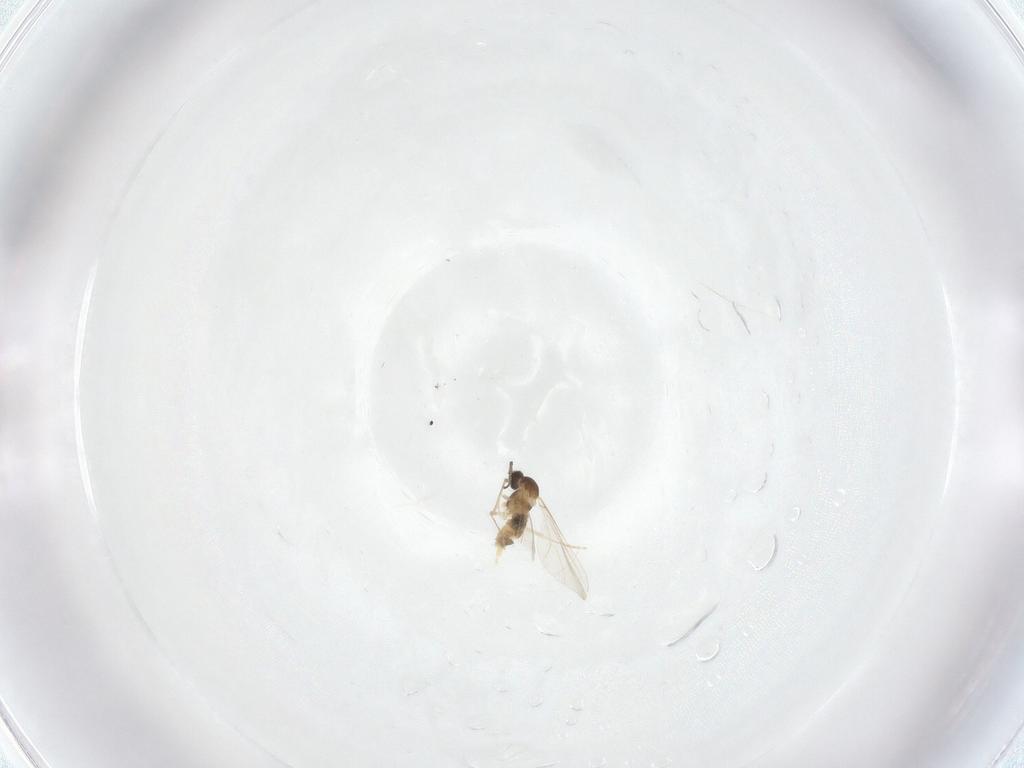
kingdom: Animalia
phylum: Arthropoda
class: Insecta
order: Diptera
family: Cecidomyiidae
